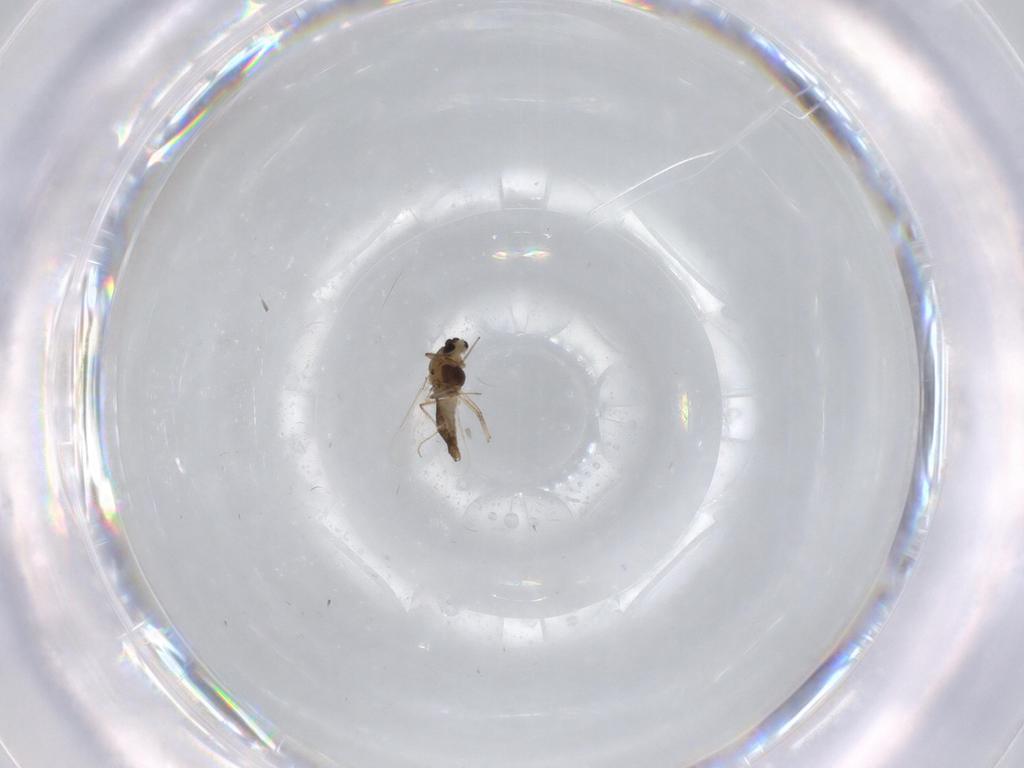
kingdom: Animalia
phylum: Arthropoda
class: Insecta
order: Diptera
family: Chironomidae
